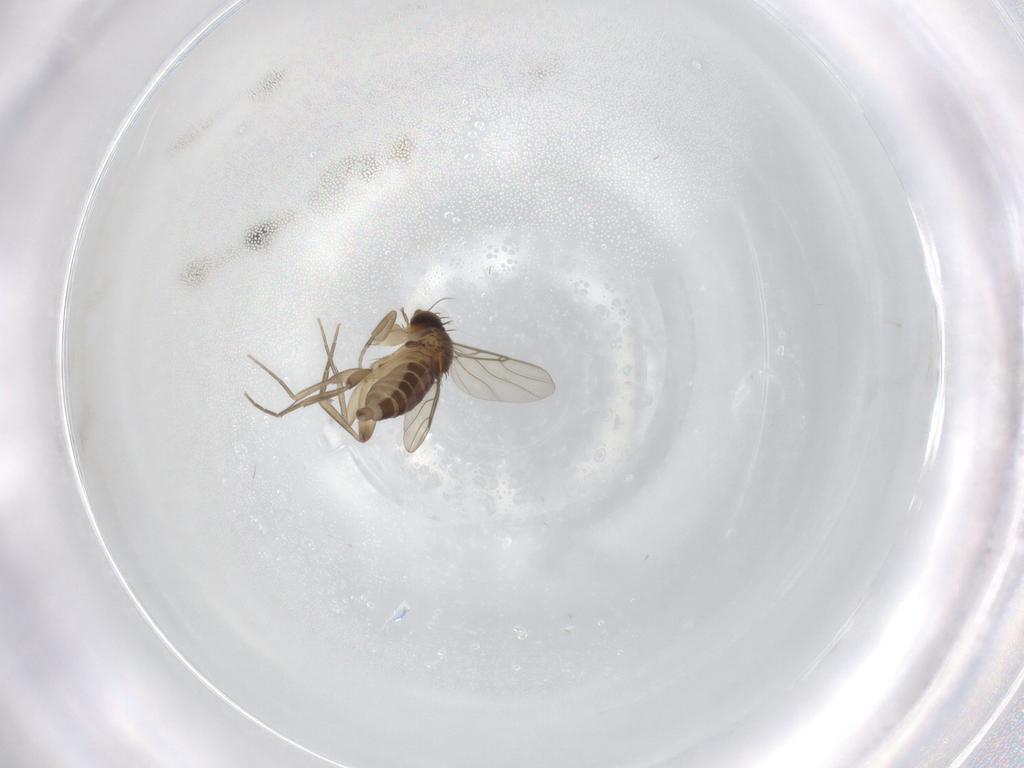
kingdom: Animalia
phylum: Arthropoda
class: Insecta
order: Diptera
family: Phoridae
